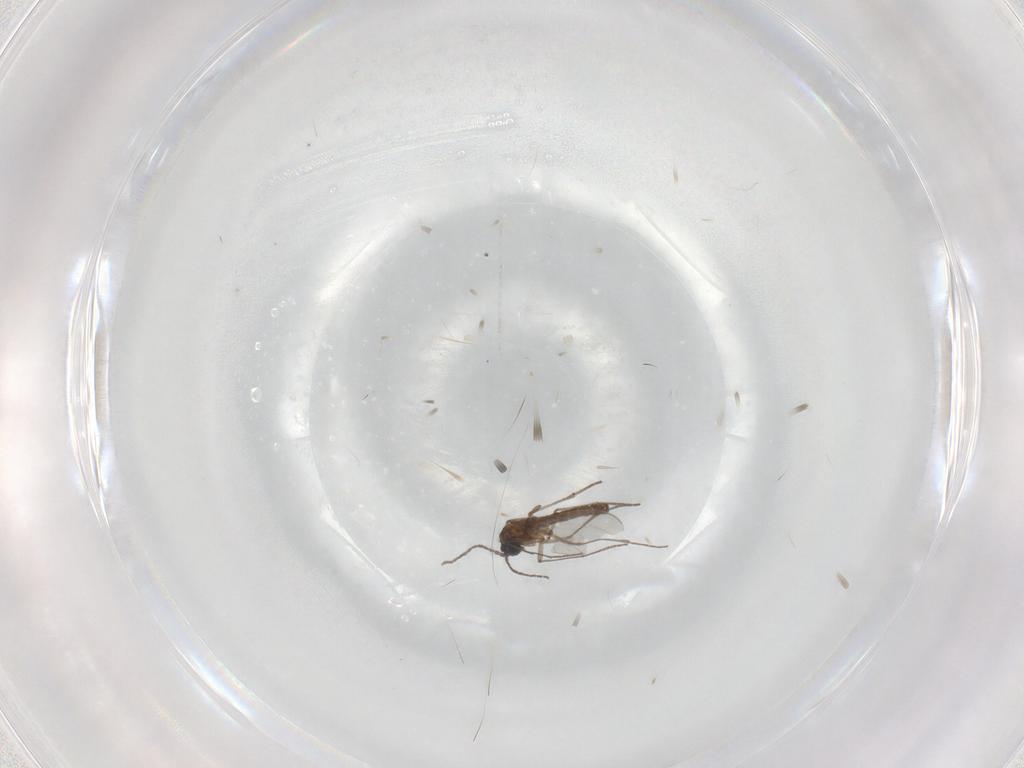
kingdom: Animalia
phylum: Arthropoda
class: Insecta
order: Diptera
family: Sciaridae
